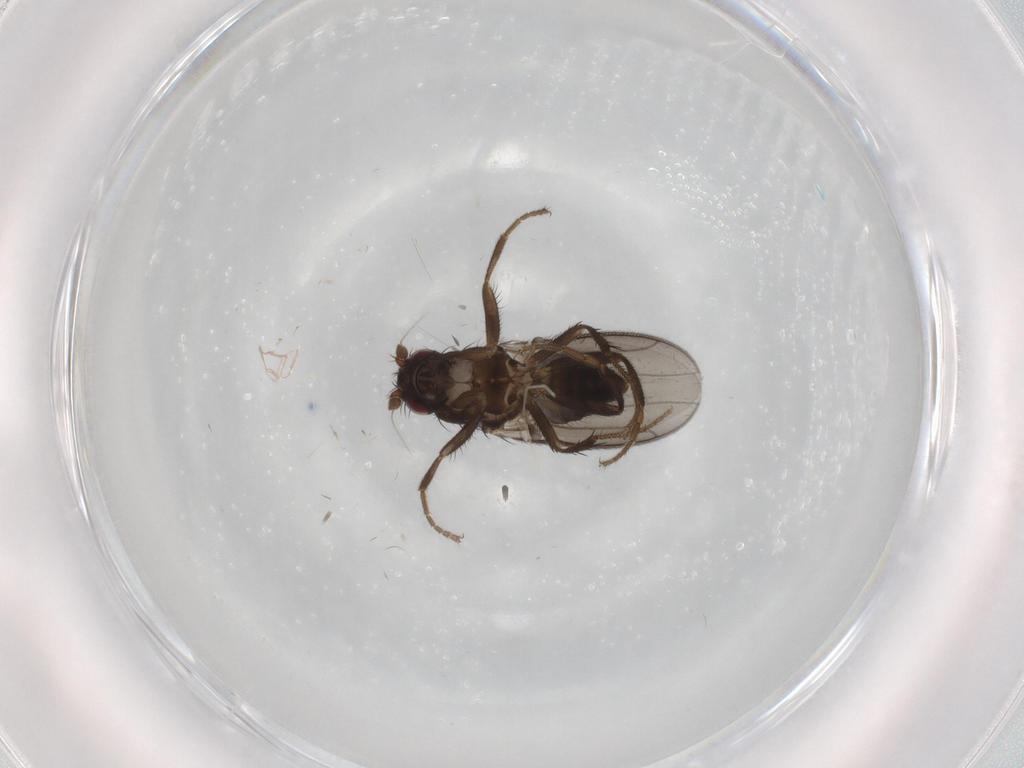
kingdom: Animalia
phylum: Arthropoda
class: Insecta
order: Diptera
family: Sphaeroceridae
